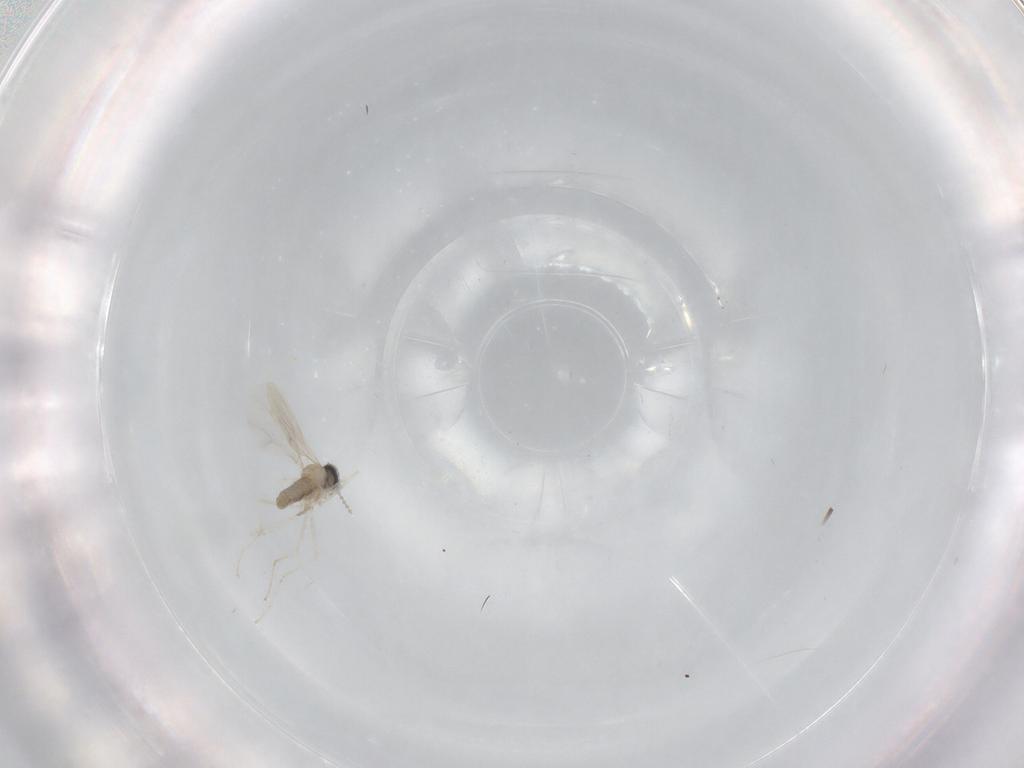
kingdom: Animalia
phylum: Arthropoda
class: Insecta
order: Diptera
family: Cecidomyiidae
